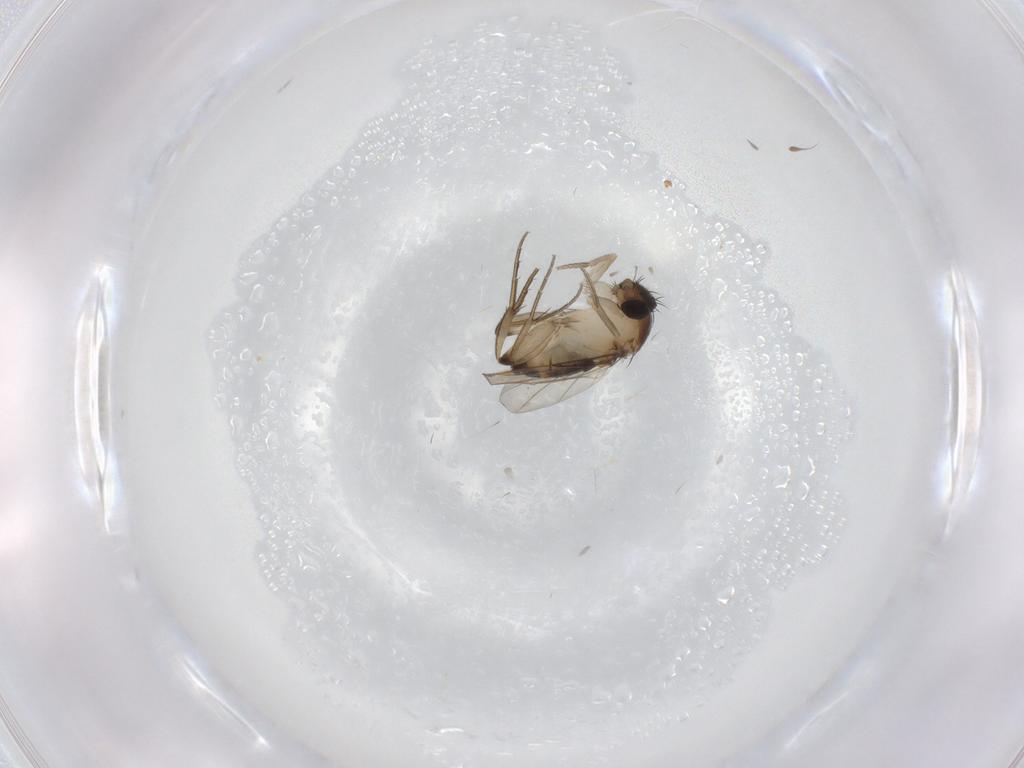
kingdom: Animalia
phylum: Arthropoda
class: Insecta
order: Diptera
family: Phoridae
